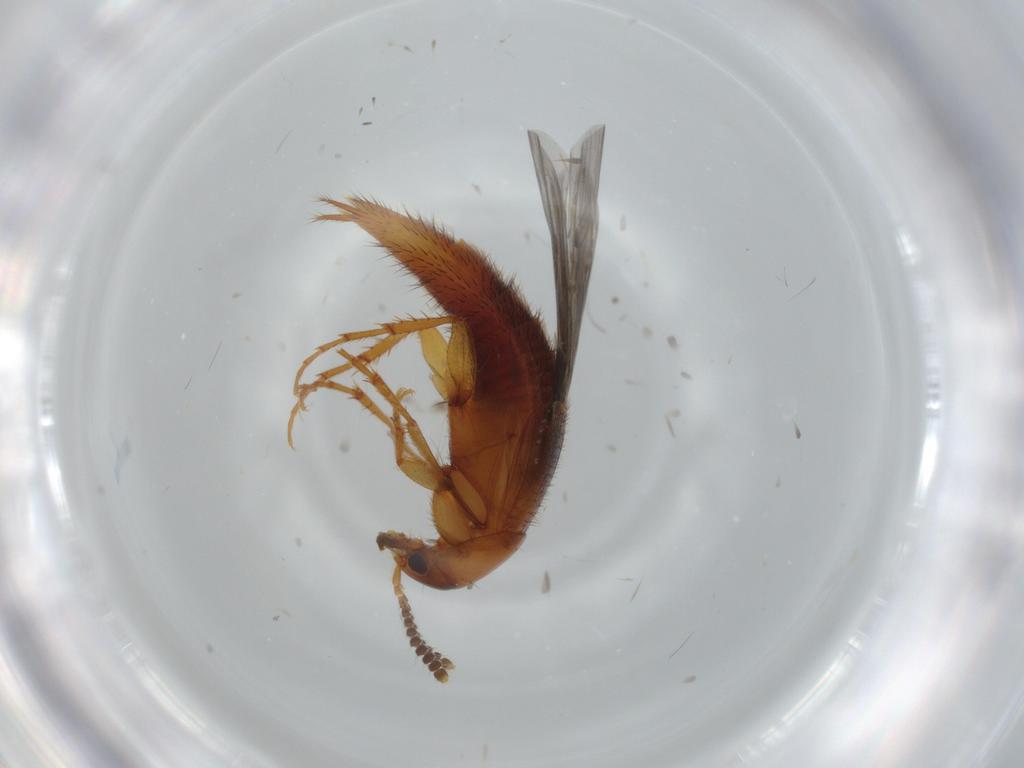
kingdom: Animalia
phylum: Arthropoda
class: Insecta
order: Coleoptera
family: Staphylinidae
